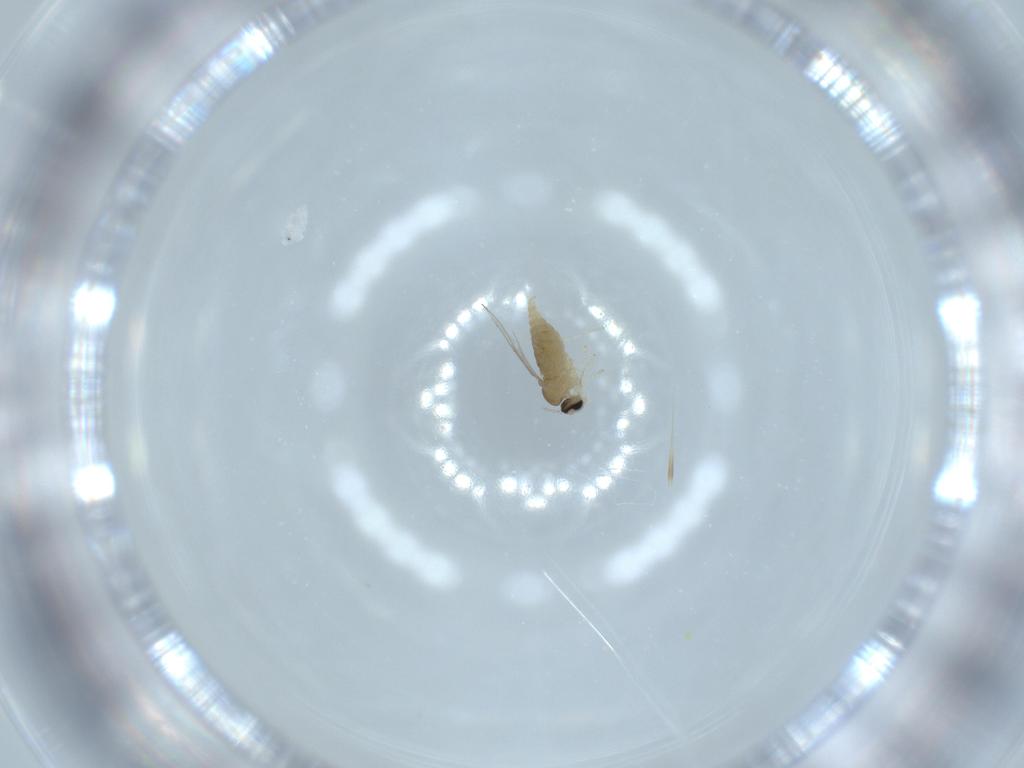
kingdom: Animalia
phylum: Arthropoda
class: Insecta
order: Diptera
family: Cecidomyiidae
